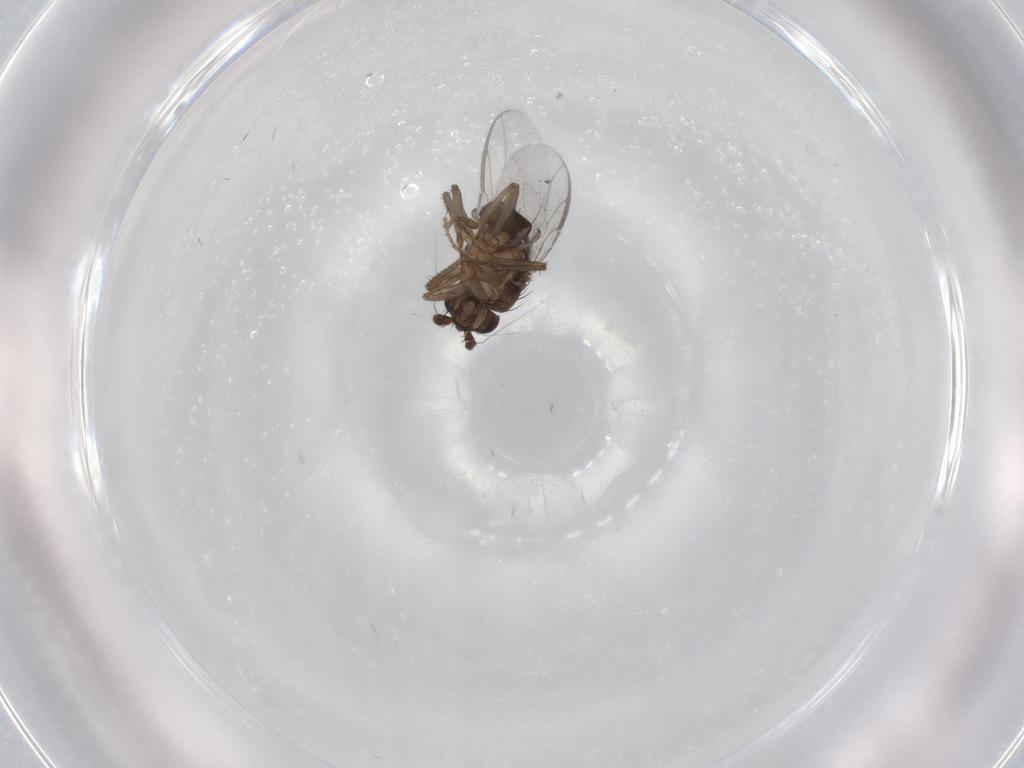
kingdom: Animalia
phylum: Arthropoda
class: Insecta
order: Diptera
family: Sphaeroceridae
